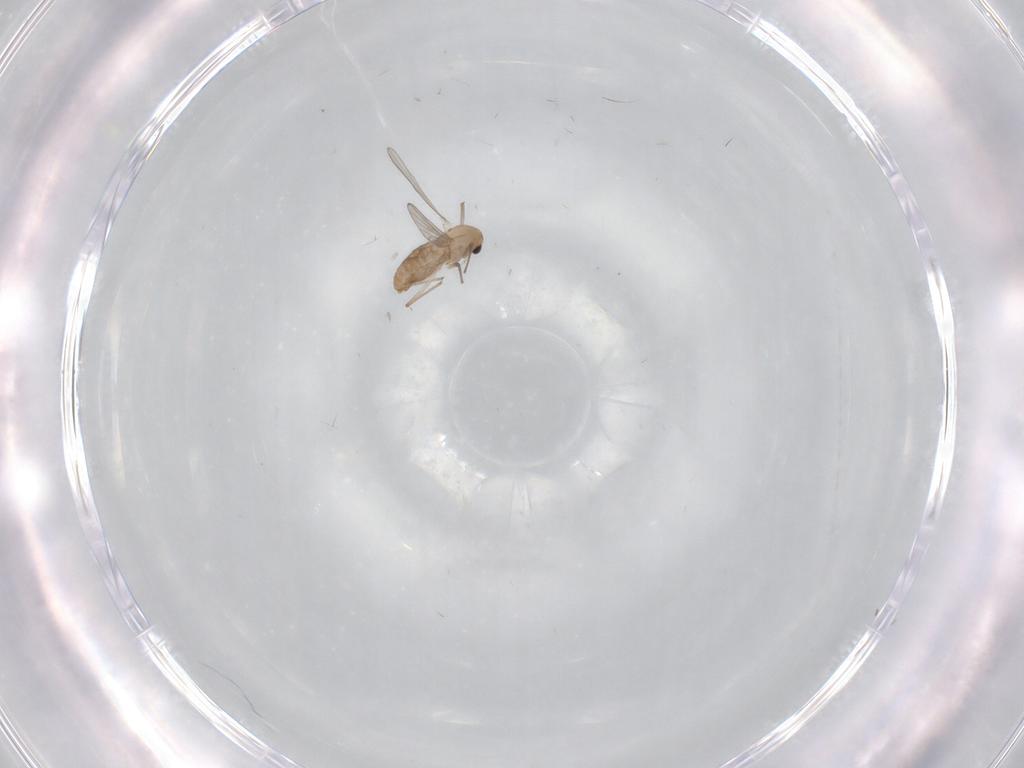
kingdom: Animalia
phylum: Arthropoda
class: Insecta
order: Diptera
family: Chironomidae
